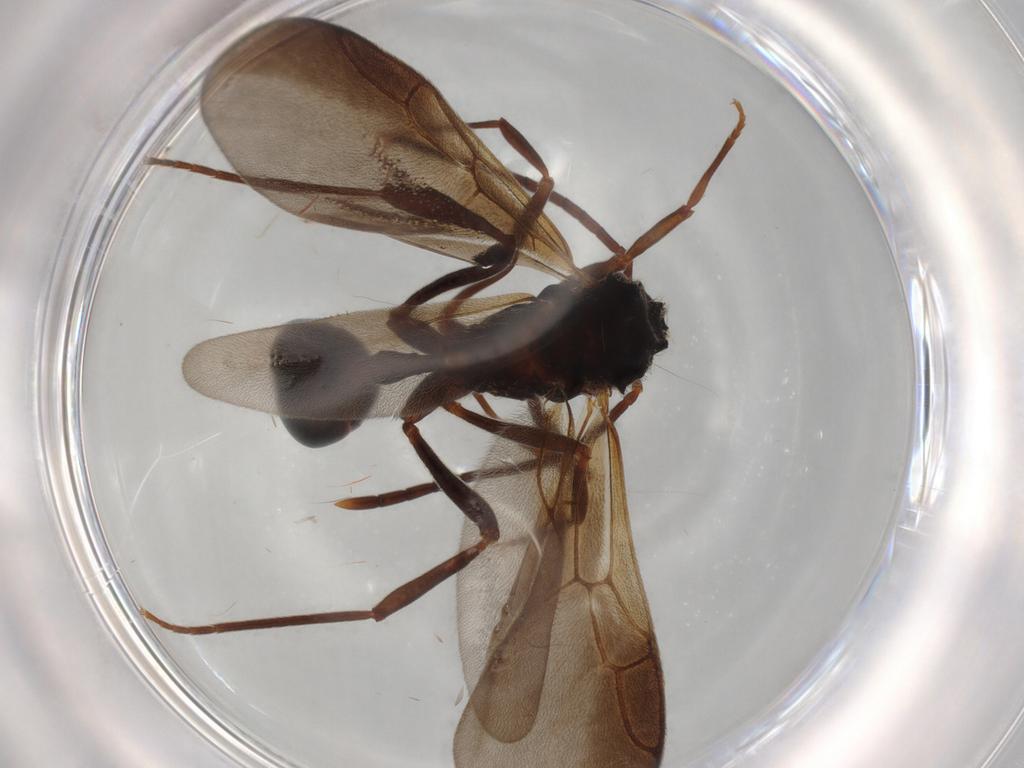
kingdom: Animalia
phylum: Arthropoda
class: Insecta
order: Hymenoptera
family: Formicidae
